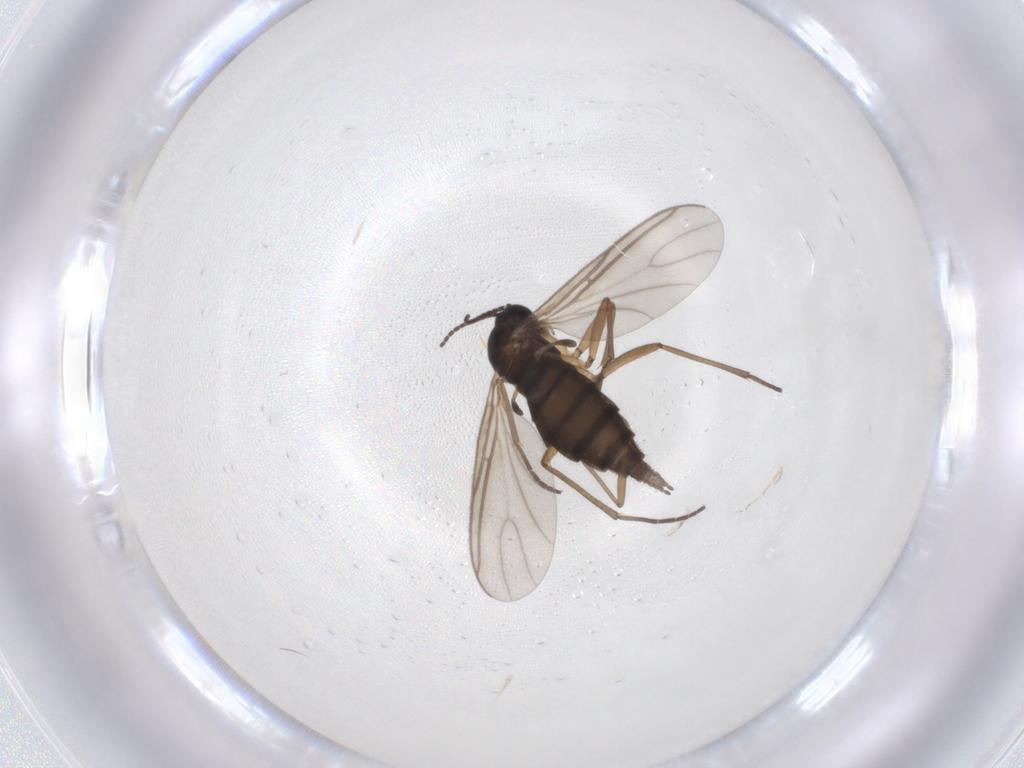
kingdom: Animalia
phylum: Arthropoda
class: Insecta
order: Diptera
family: Sciaridae
